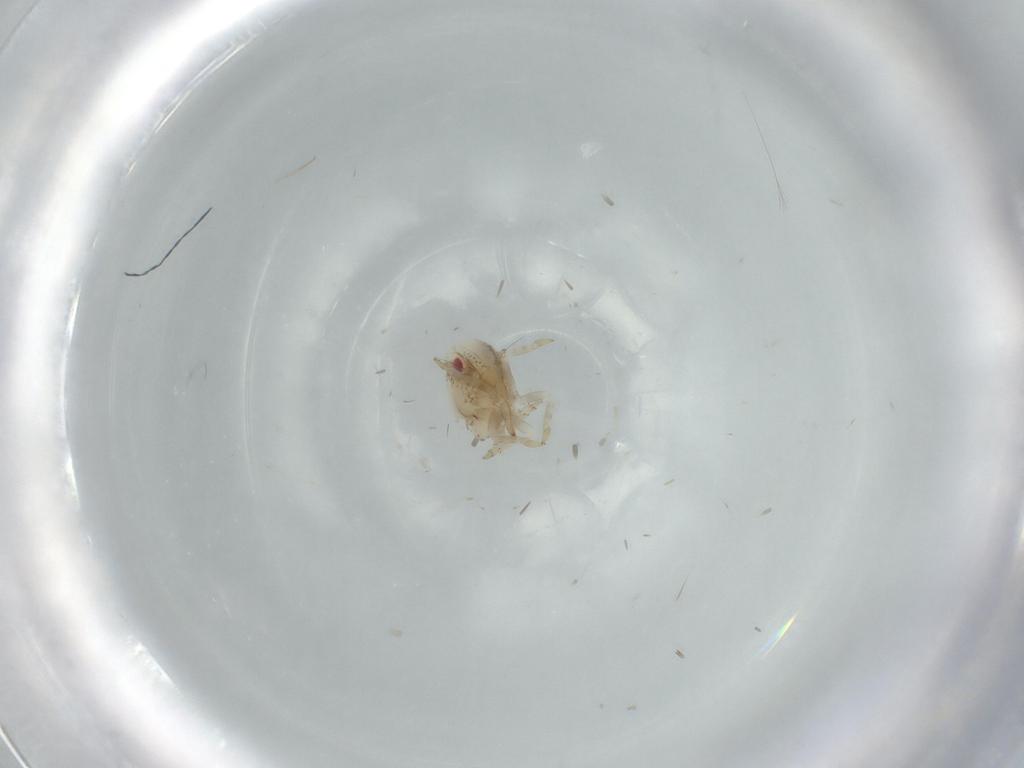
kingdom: Animalia
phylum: Arthropoda
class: Insecta
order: Hemiptera
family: Acanaloniidae
